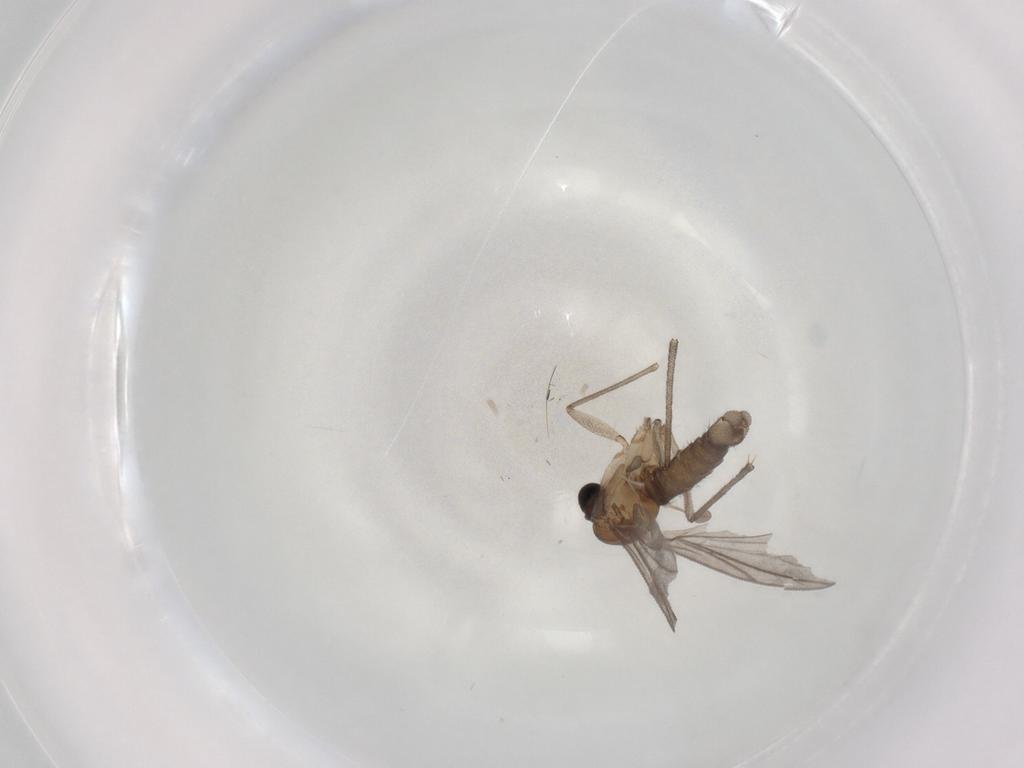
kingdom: Animalia
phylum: Arthropoda
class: Insecta
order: Diptera
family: Sciaridae
